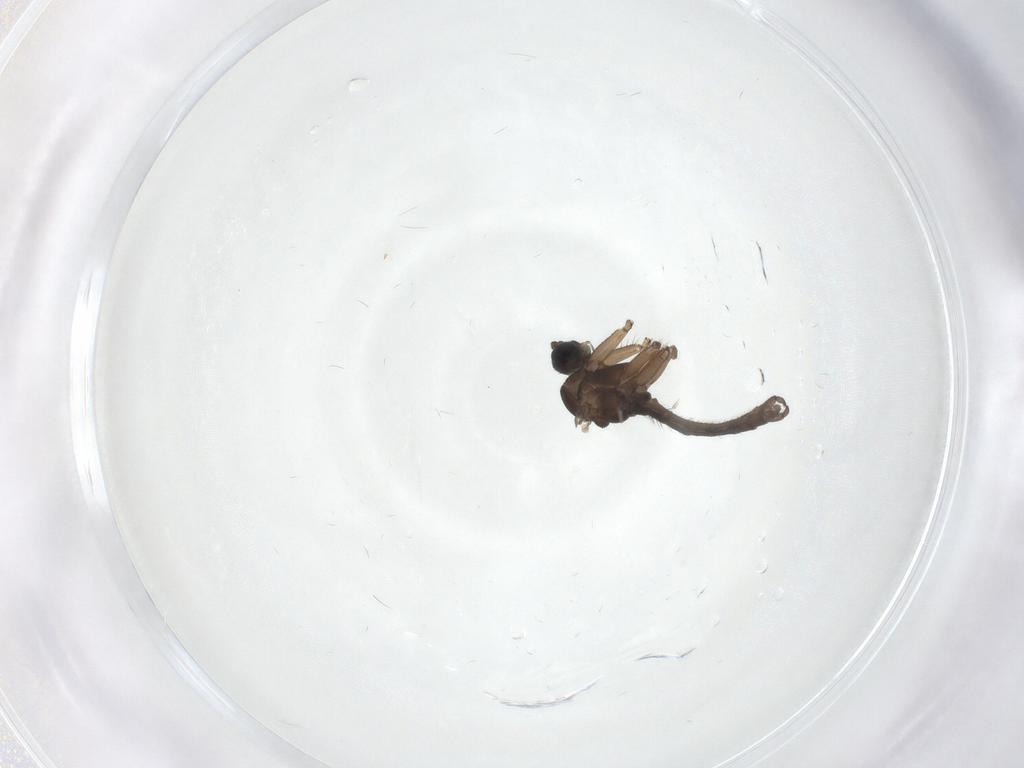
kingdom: Animalia
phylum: Arthropoda
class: Insecta
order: Diptera
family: Sciaridae
